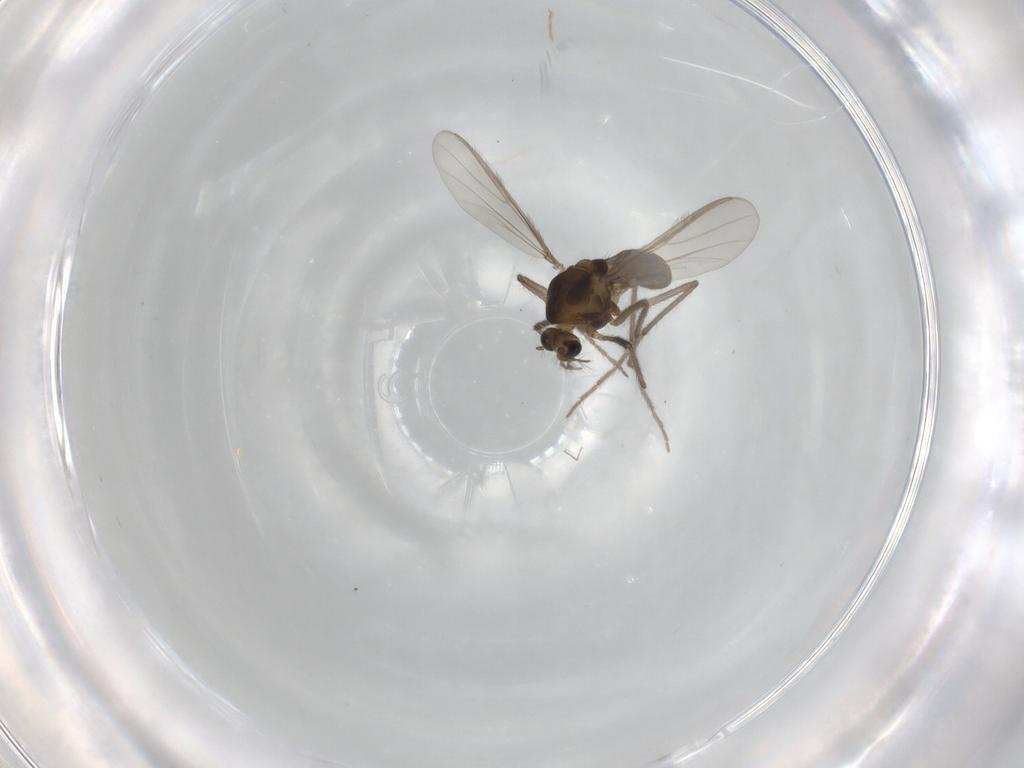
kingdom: Animalia
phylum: Arthropoda
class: Insecta
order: Diptera
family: Chironomidae
